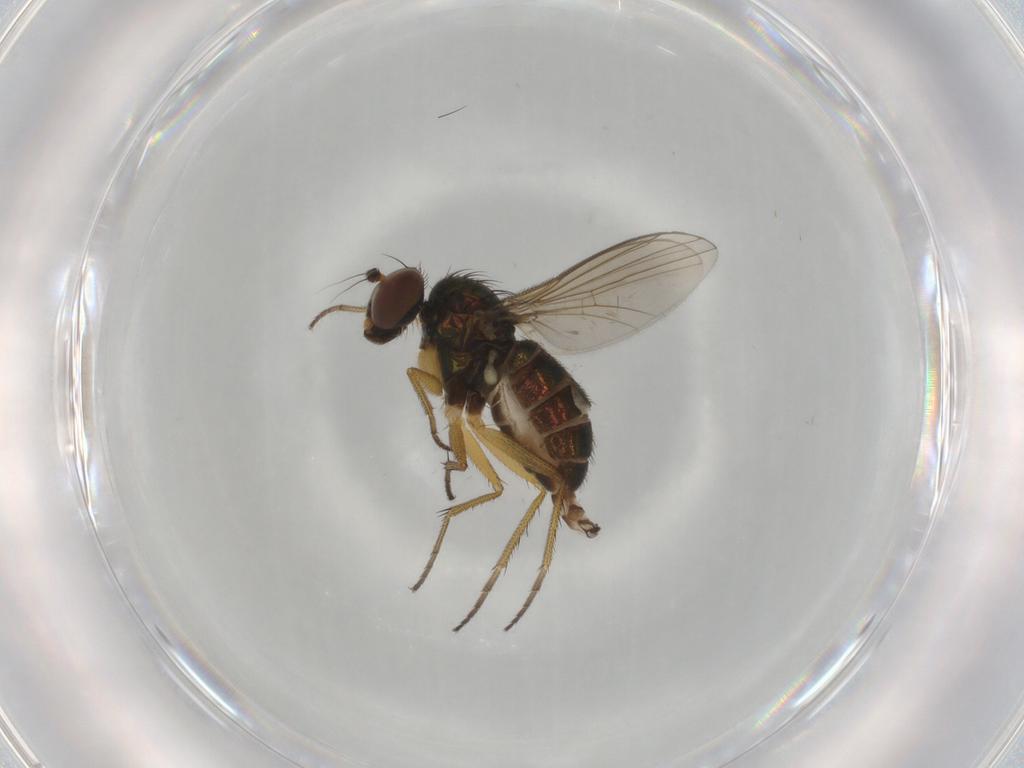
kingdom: Animalia
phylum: Arthropoda
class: Insecta
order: Diptera
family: Dolichopodidae
